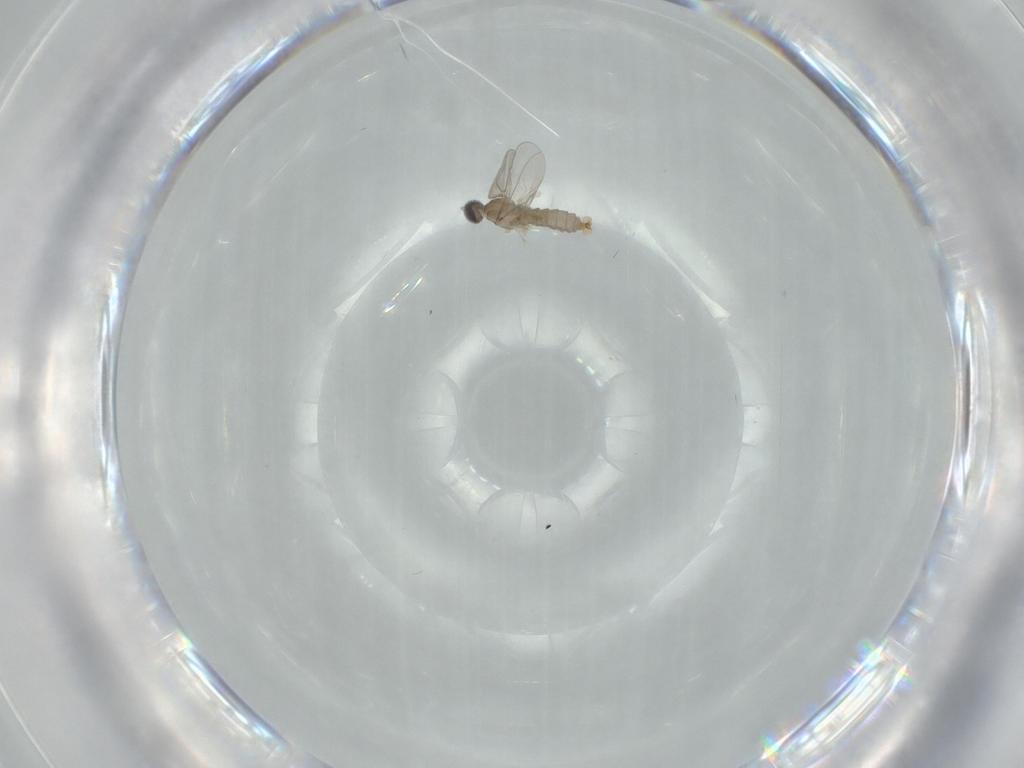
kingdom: Animalia
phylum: Arthropoda
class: Insecta
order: Diptera
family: Cecidomyiidae
